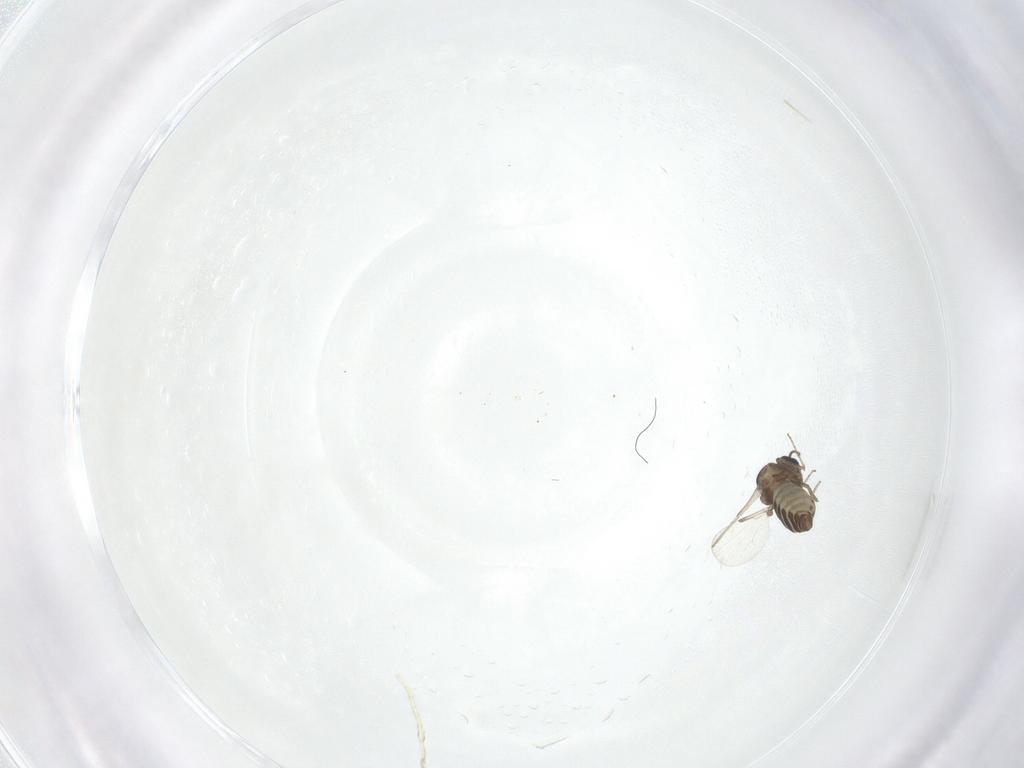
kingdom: Animalia
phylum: Arthropoda
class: Insecta
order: Diptera
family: Ceratopogonidae
